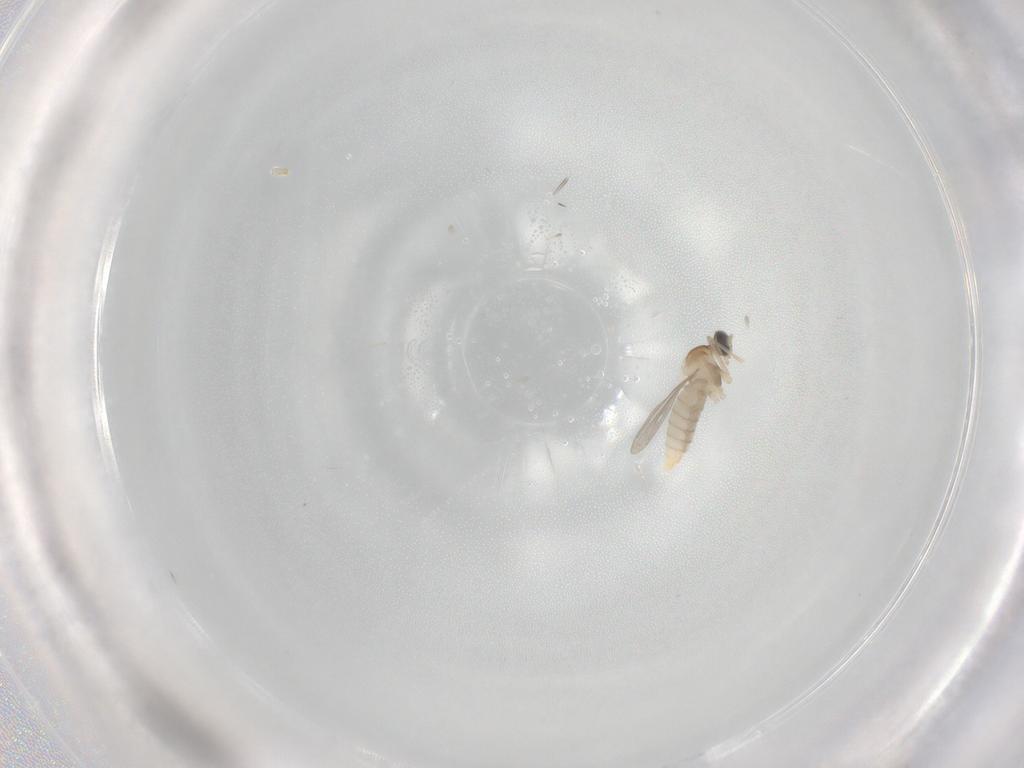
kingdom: Animalia
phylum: Arthropoda
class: Insecta
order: Diptera
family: Cecidomyiidae
